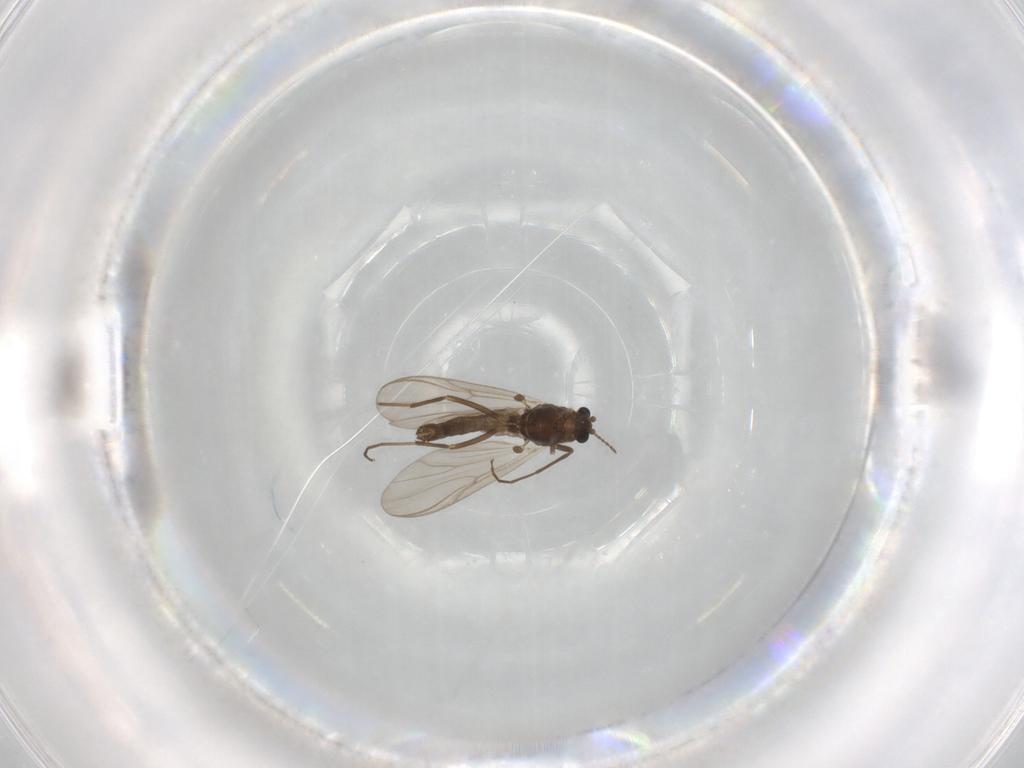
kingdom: Animalia
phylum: Arthropoda
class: Insecta
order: Diptera
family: Chironomidae
